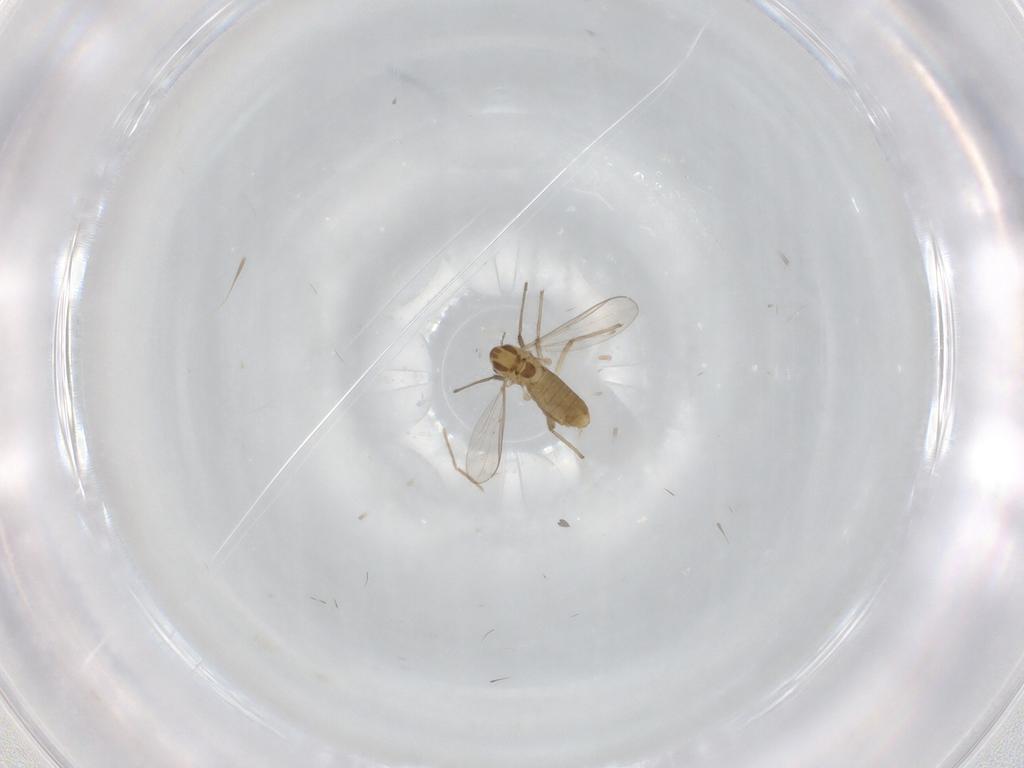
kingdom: Animalia
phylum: Arthropoda
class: Insecta
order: Diptera
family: Chironomidae
